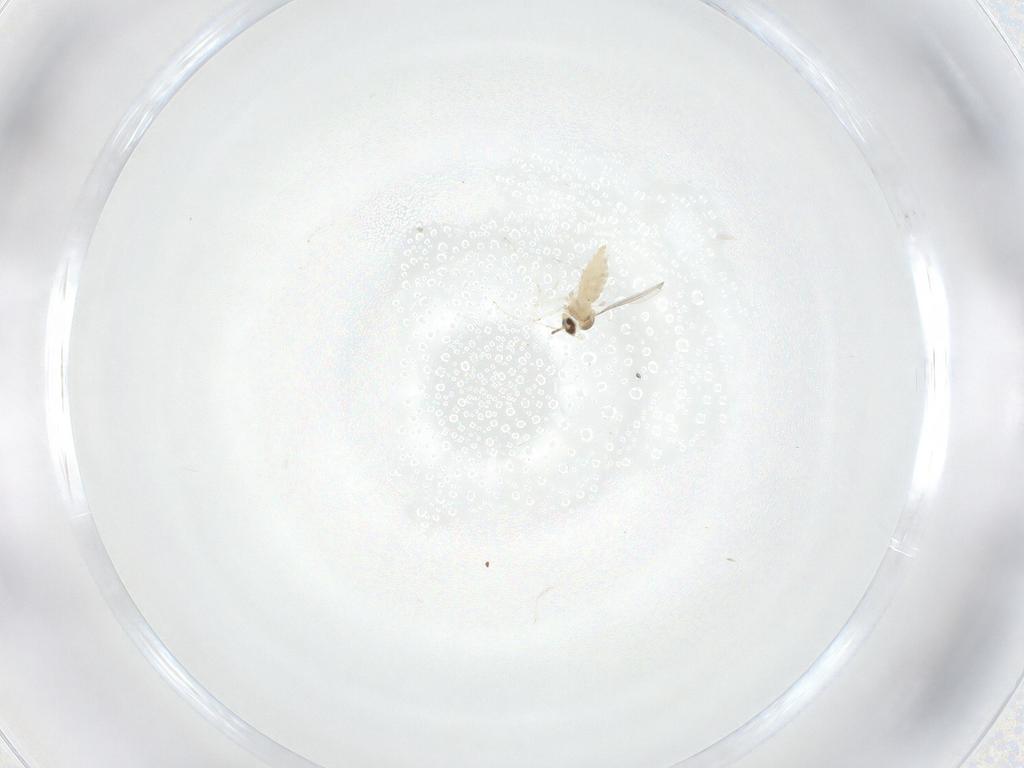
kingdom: Animalia
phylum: Arthropoda
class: Insecta
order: Diptera
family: Cecidomyiidae
